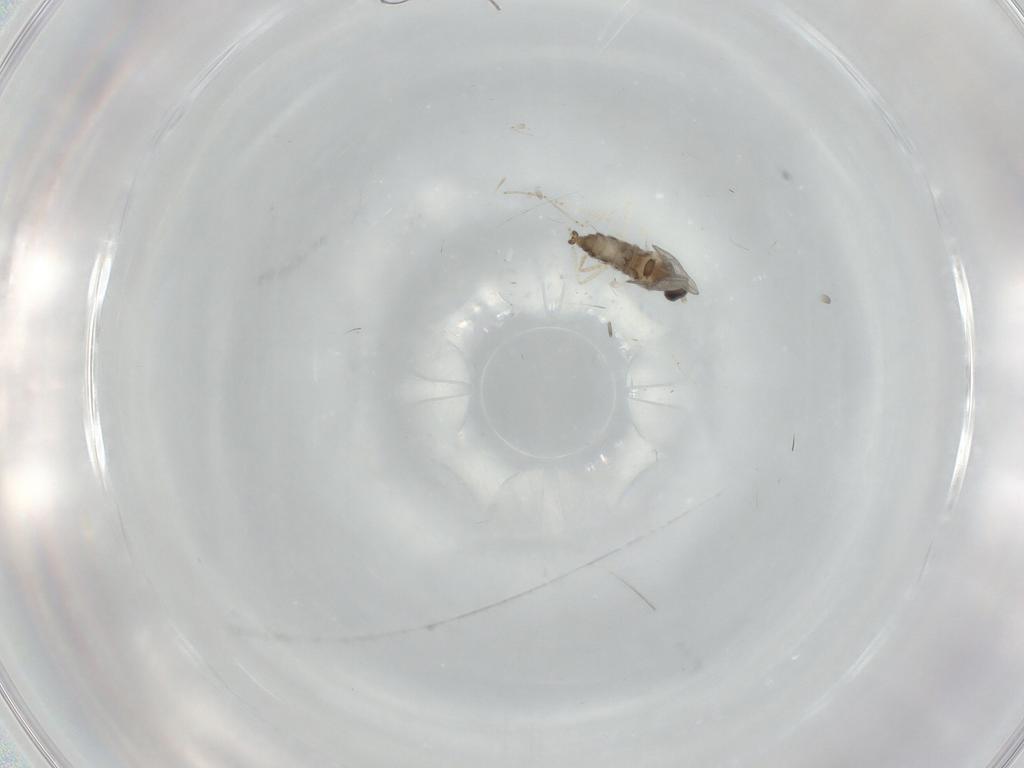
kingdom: Animalia
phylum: Arthropoda
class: Insecta
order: Diptera
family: Cecidomyiidae
